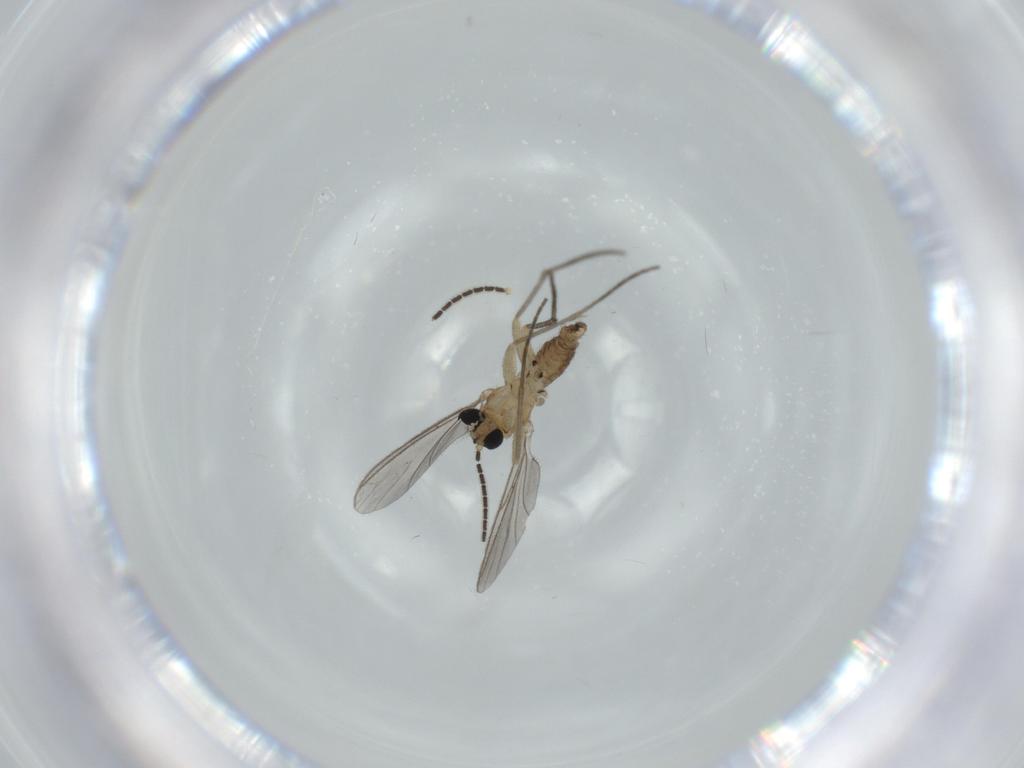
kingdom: Animalia
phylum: Arthropoda
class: Insecta
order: Diptera
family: Sciaridae
